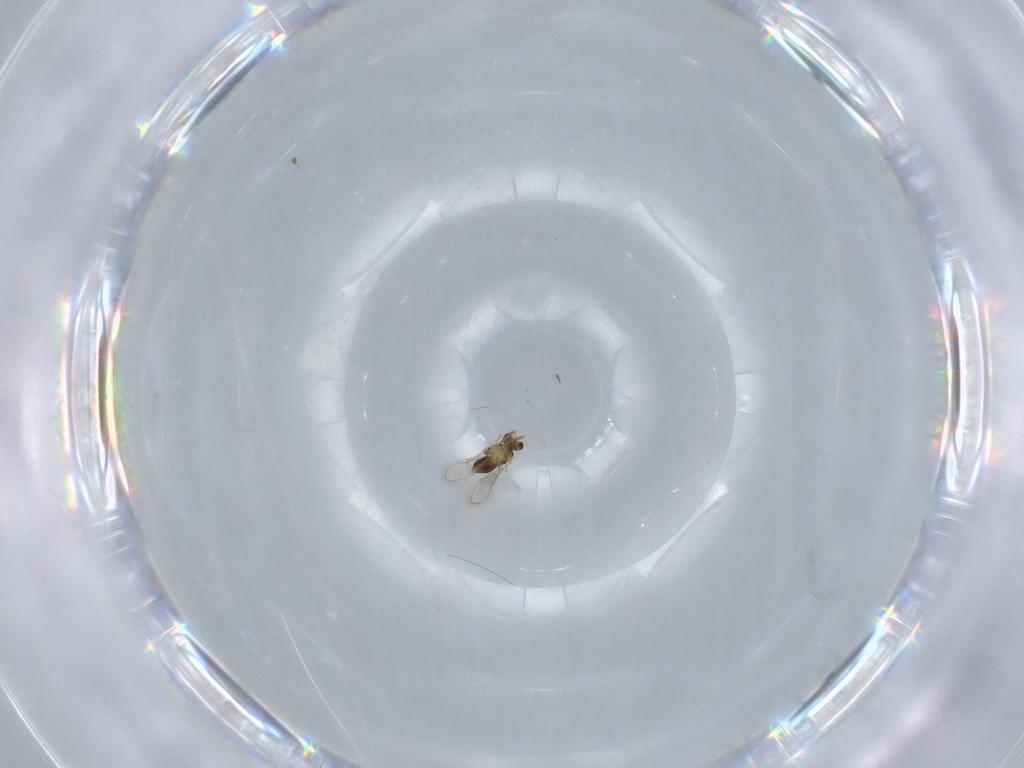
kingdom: Animalia
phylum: Arthropoda
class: Insecta
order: Hymenoptera
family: Aphelinidae
